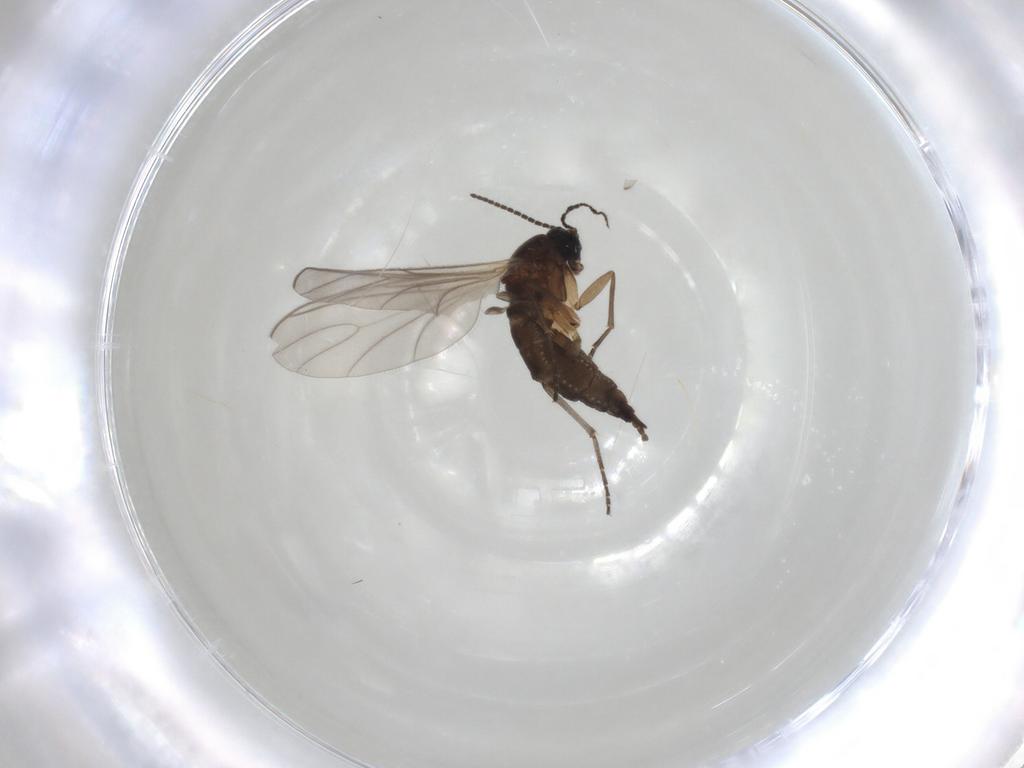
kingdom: Animalia
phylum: Arthropoda
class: Insecta
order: Diptera
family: Sciaridae
